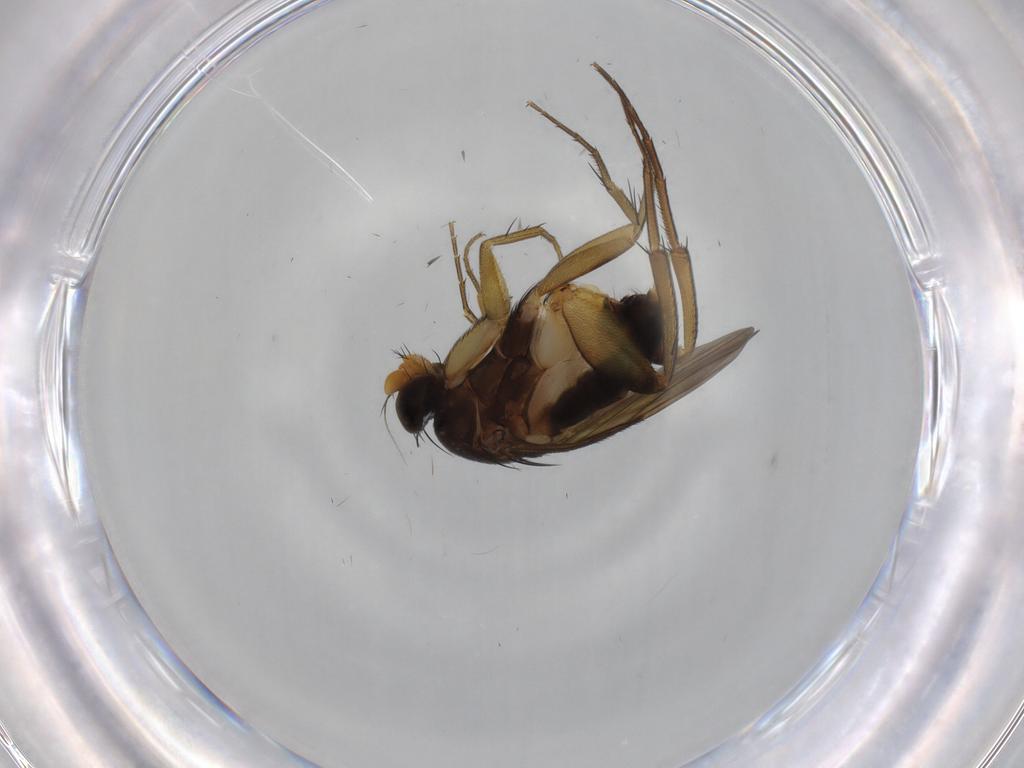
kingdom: Animalia
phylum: Arthropoda
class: Insecta
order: Diptera
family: Phoridae
